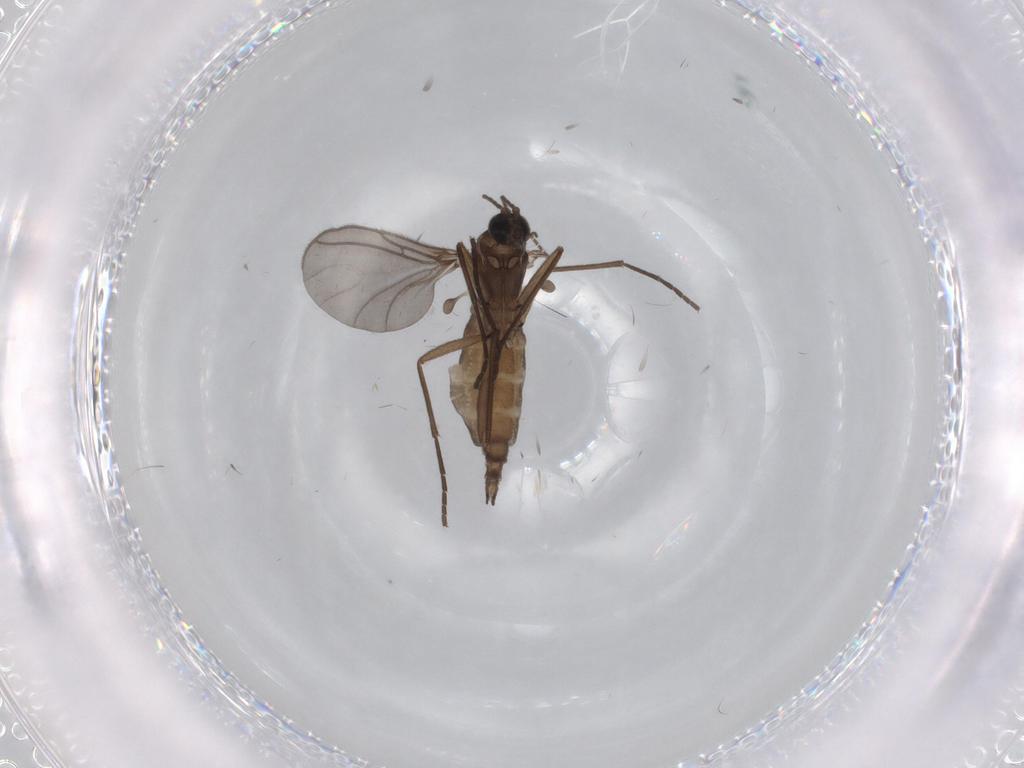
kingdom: Animalia
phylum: Arthropoda
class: Insecta
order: Diptera
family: Sciaridae
